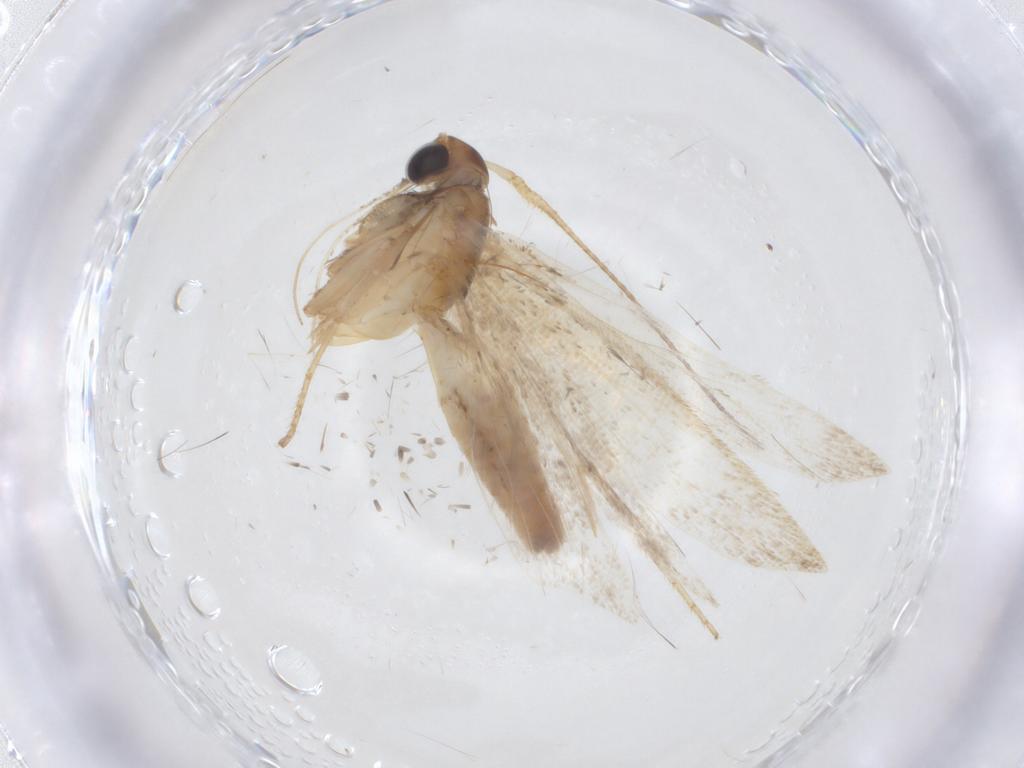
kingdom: Animalia
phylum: Arthropoda
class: Insecta
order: Lepidoptera
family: Gelechiidae
